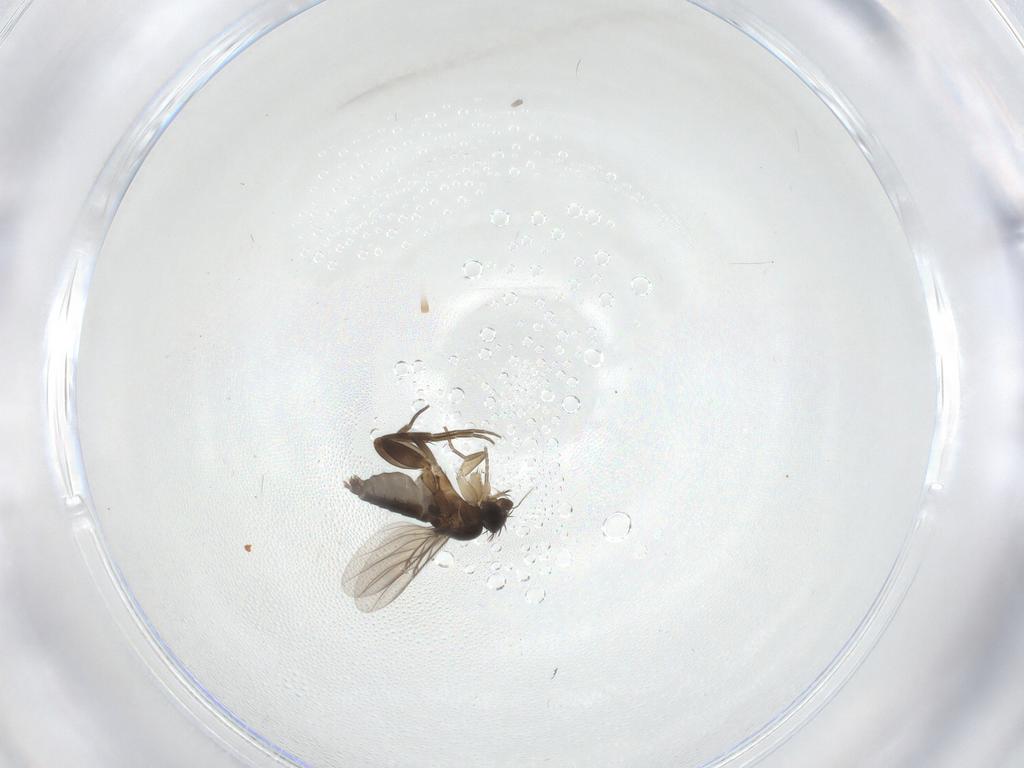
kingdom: Animalia
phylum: Arthropoda
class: Insecta
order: Diptera
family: Phoridae
